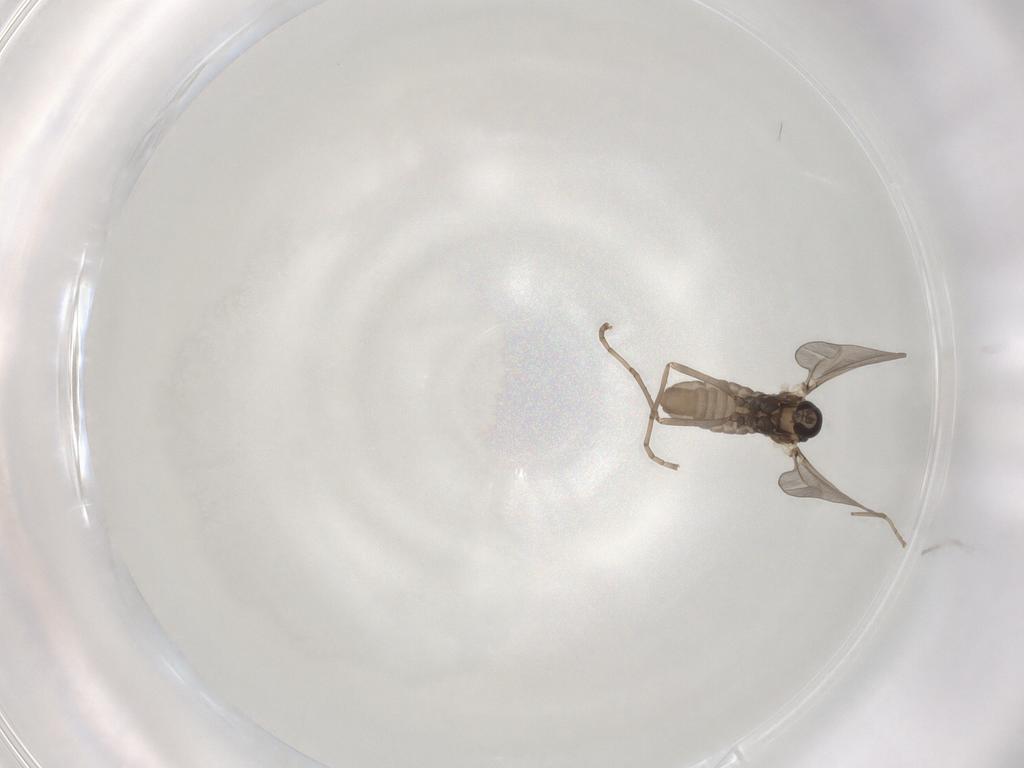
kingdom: Animalia
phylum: Arthropoda
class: Insecta
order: Diptera
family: Cecidomyiidae
